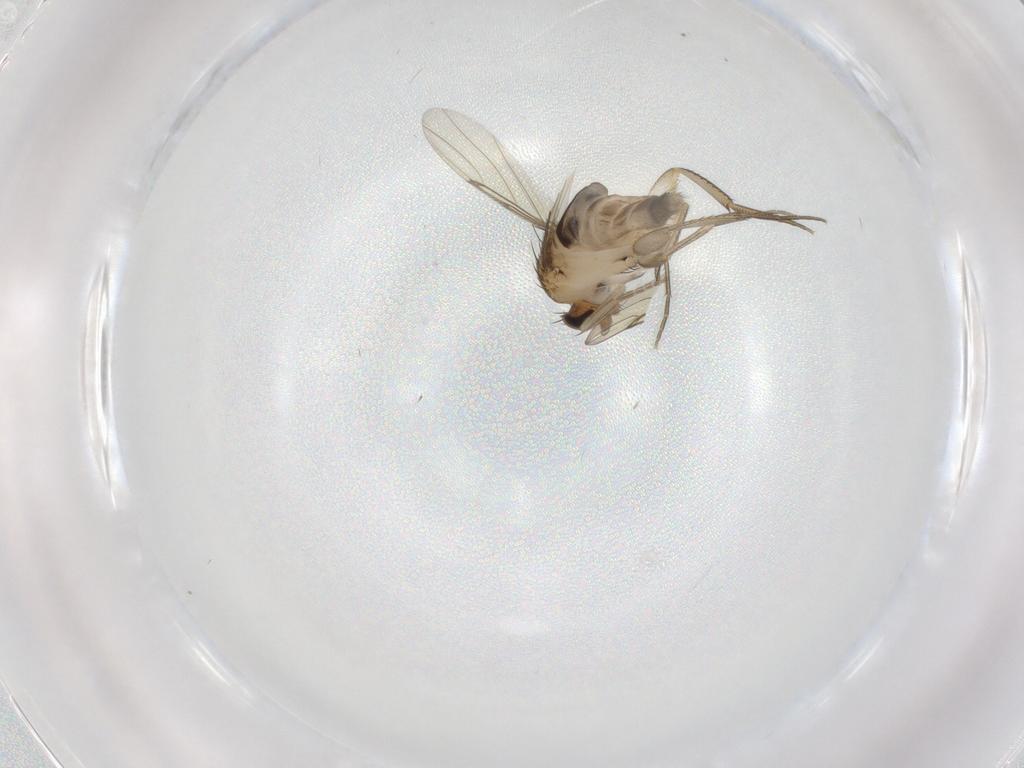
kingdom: Animalia
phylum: Arthropoda
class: Insecta
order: Diptera
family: Phoridae
